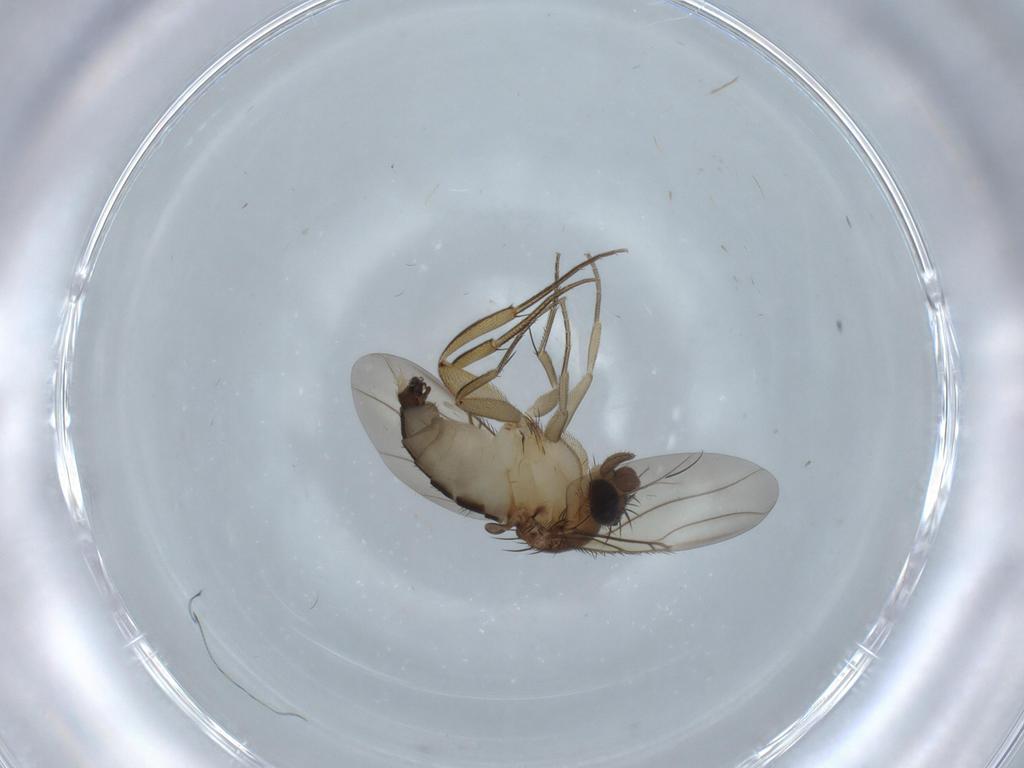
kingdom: Animalia
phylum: Arthropoda
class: Insecta
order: Diptera
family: Phoridae
